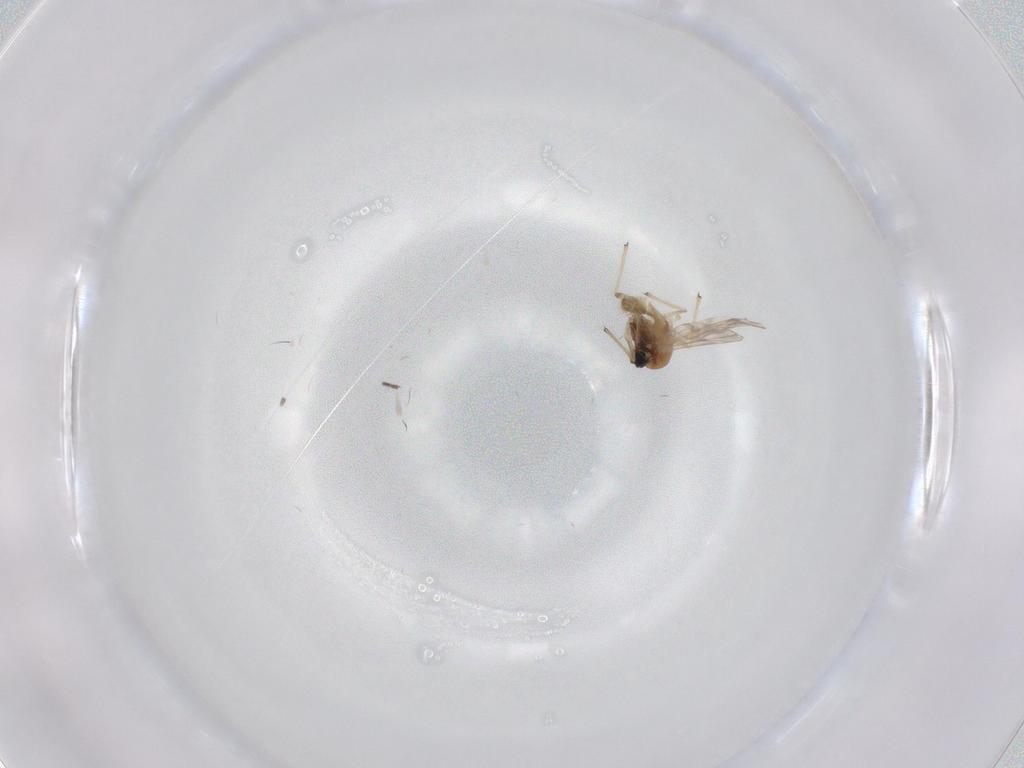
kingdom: Animalia
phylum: Arthropoda
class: Insecta
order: Diptera
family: Chironomidae
